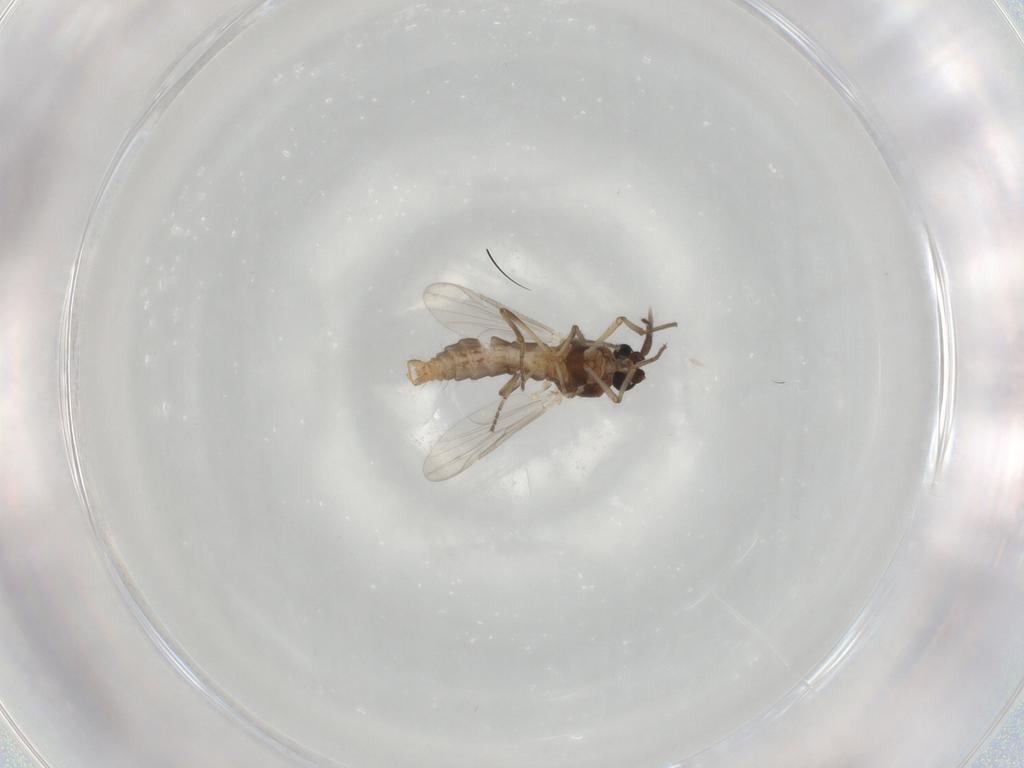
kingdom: Animalia
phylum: Arthropoda
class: Insecta
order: Diptera
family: Ceratopogonidae
